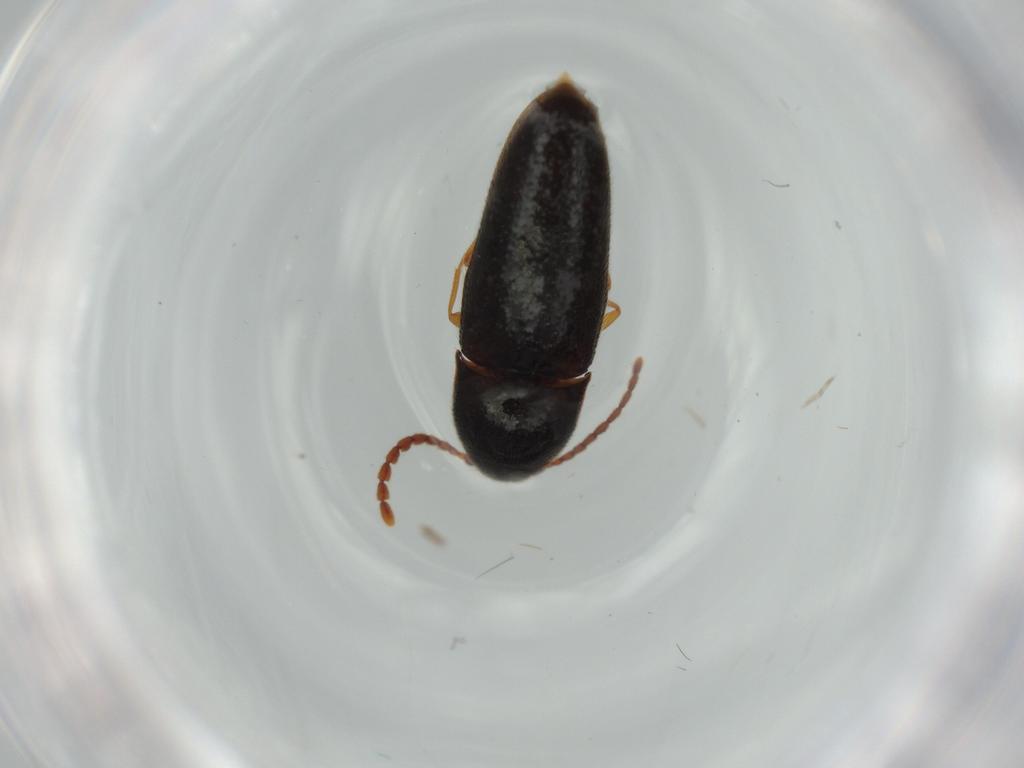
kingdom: Animalia
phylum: Arthropoda
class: Insecta
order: Coleoptera
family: Elateridae
